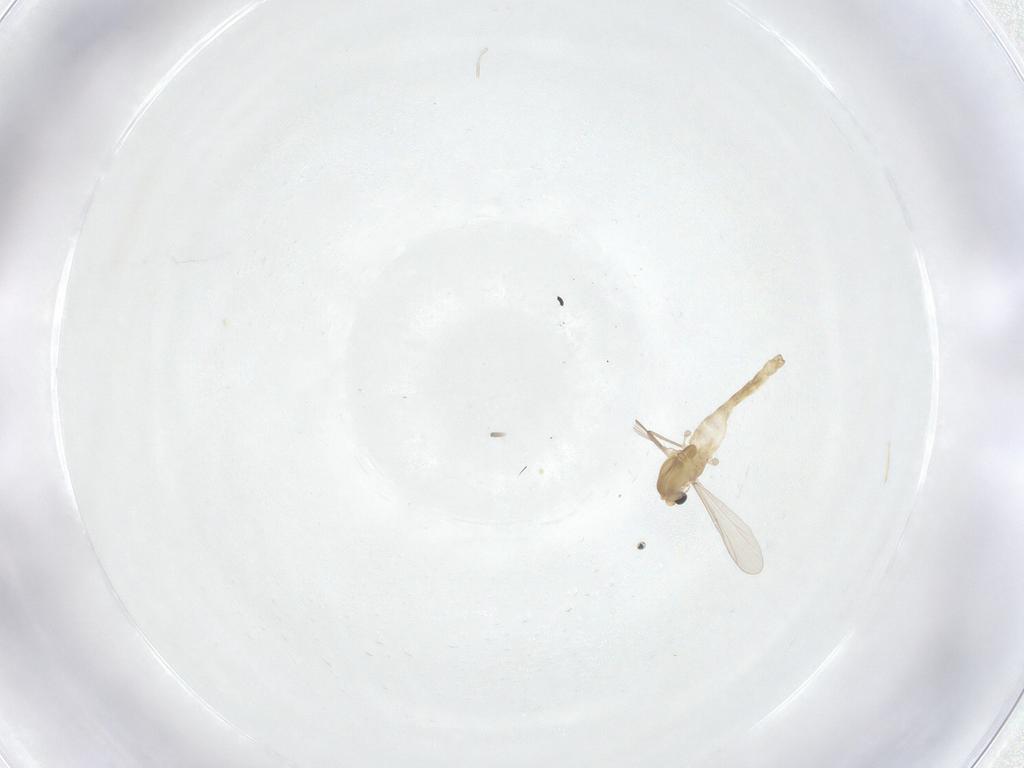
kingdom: Animalia
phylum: Arthropoda
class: Insecta
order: Diptera
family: Chironomidae
